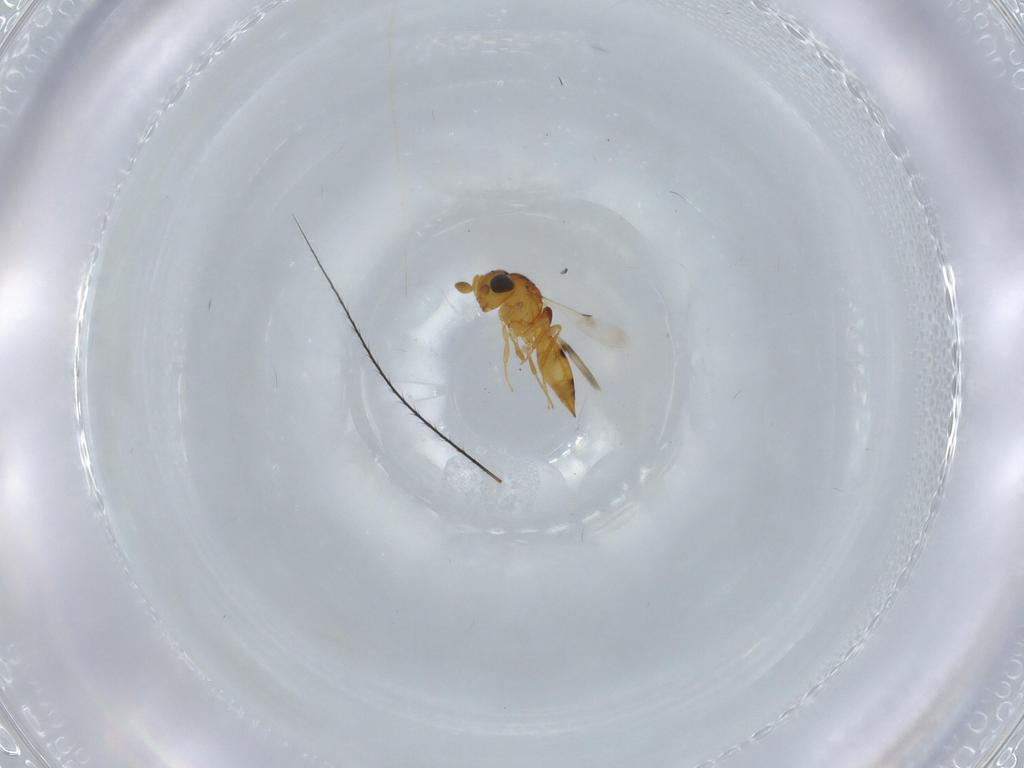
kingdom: Animalia
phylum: Arthropoda
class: Insecta
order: Hymenoptera
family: Scelionidae
